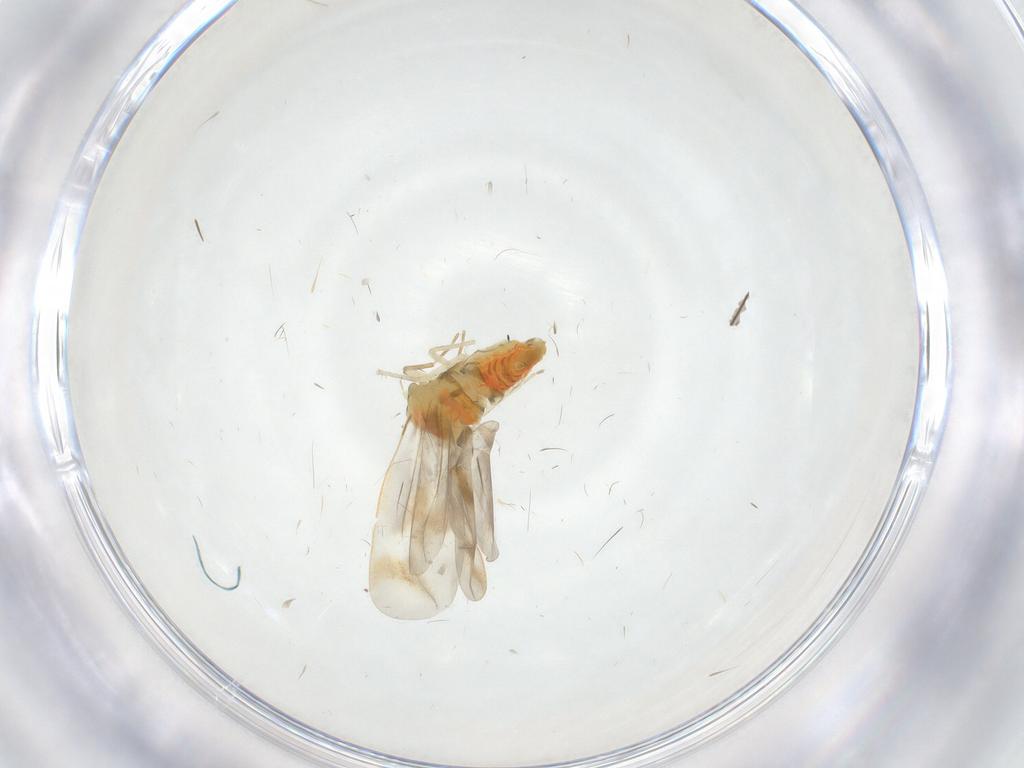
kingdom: Animalia
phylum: Arthropoda
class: Insecta
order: Hemiptera
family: Aleyrodidae
